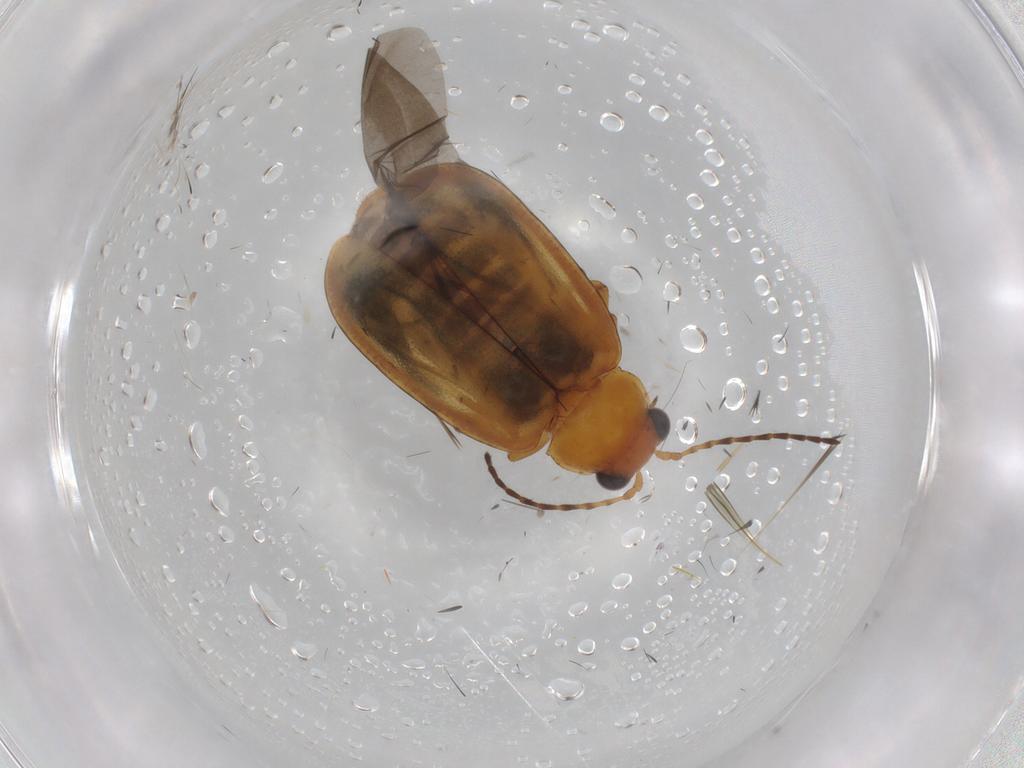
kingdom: Animalia
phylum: Arthropoda
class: Insecta
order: Coleoptera
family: Chrysomelidae
